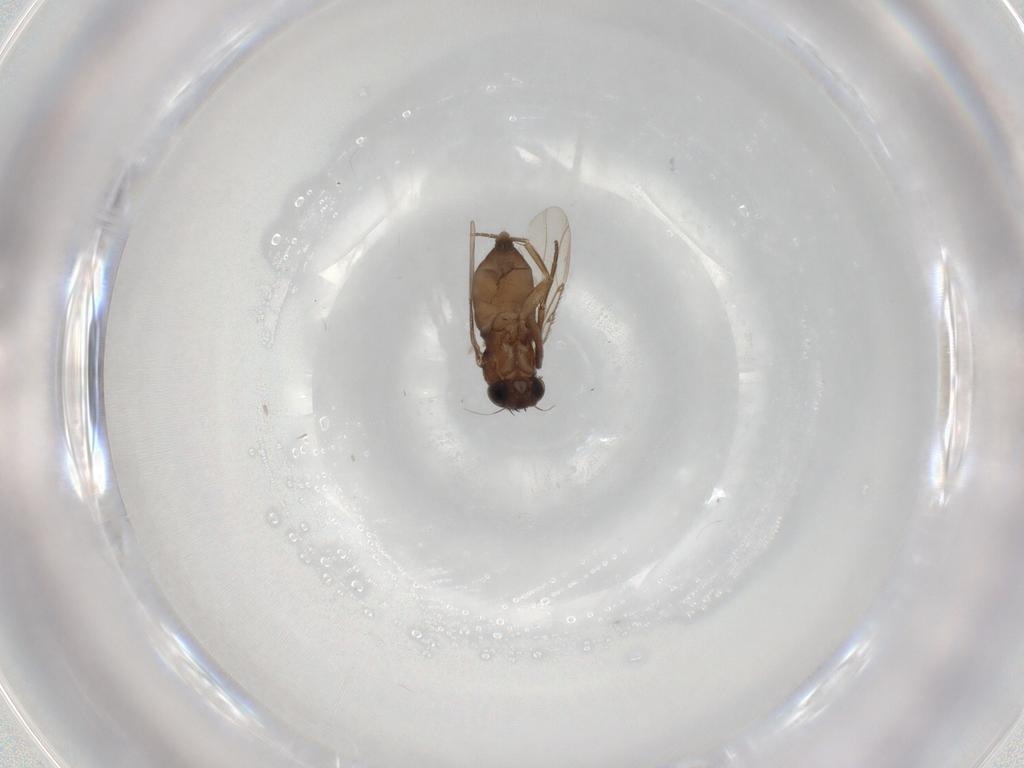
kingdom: Animalia
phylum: Arthropoda
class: Insecta
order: Diptera
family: Phoridae
